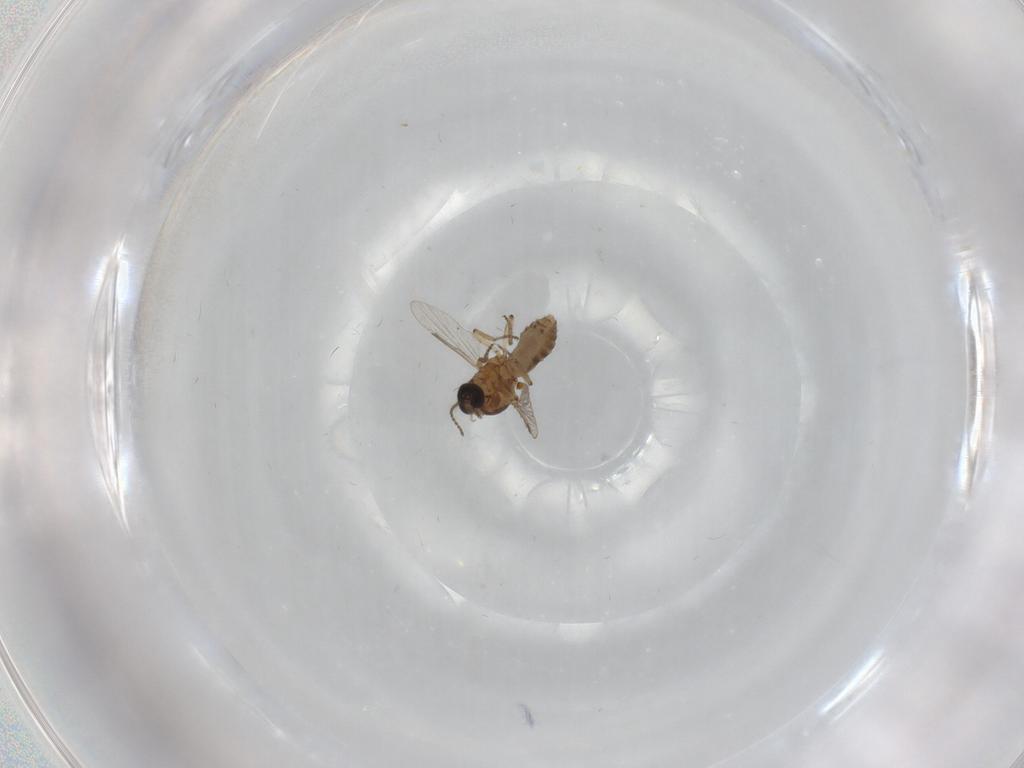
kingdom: Animalia
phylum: Arthropoda
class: Insecta
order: Diptera
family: Ceratopogonidae
